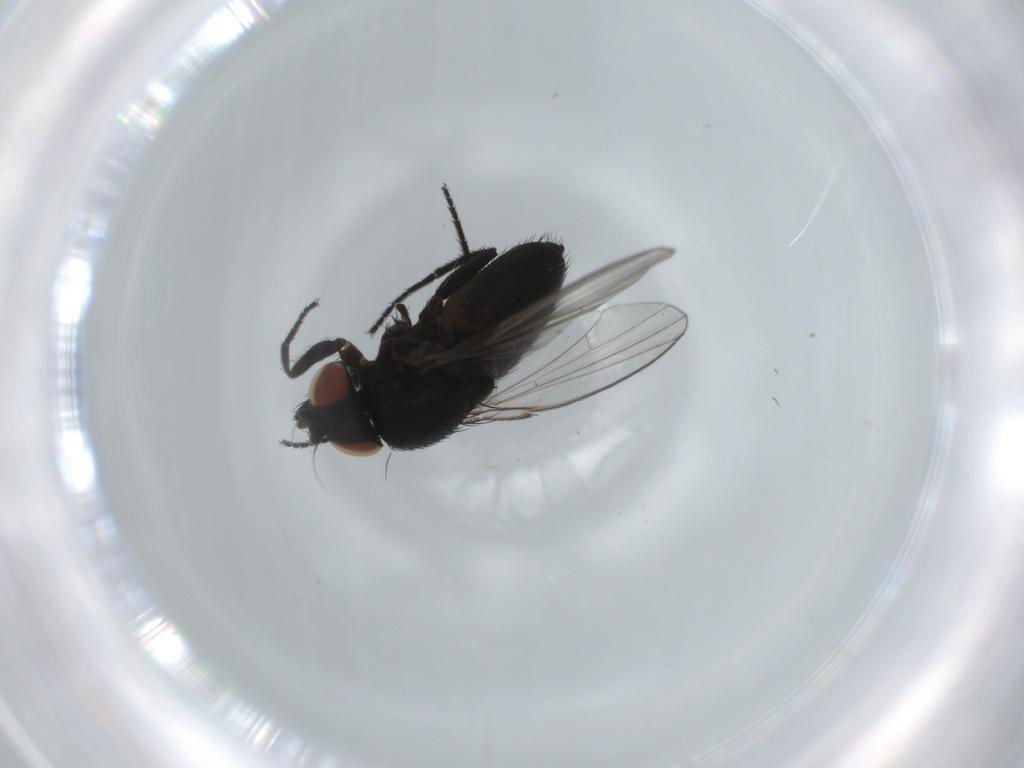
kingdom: Animalia
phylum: Arthropoda
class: Insecta
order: Diptera
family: Milichiidae
